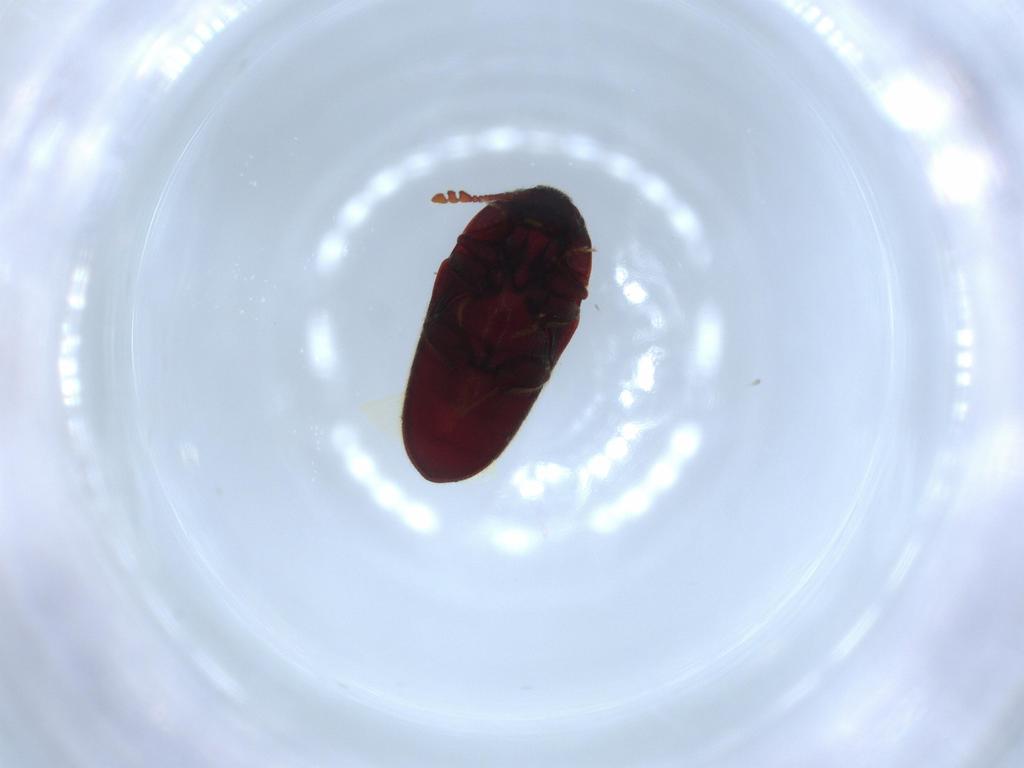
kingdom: Animalia
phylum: Arthropoda
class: Insecta
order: Coleoptera
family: Throscidae
